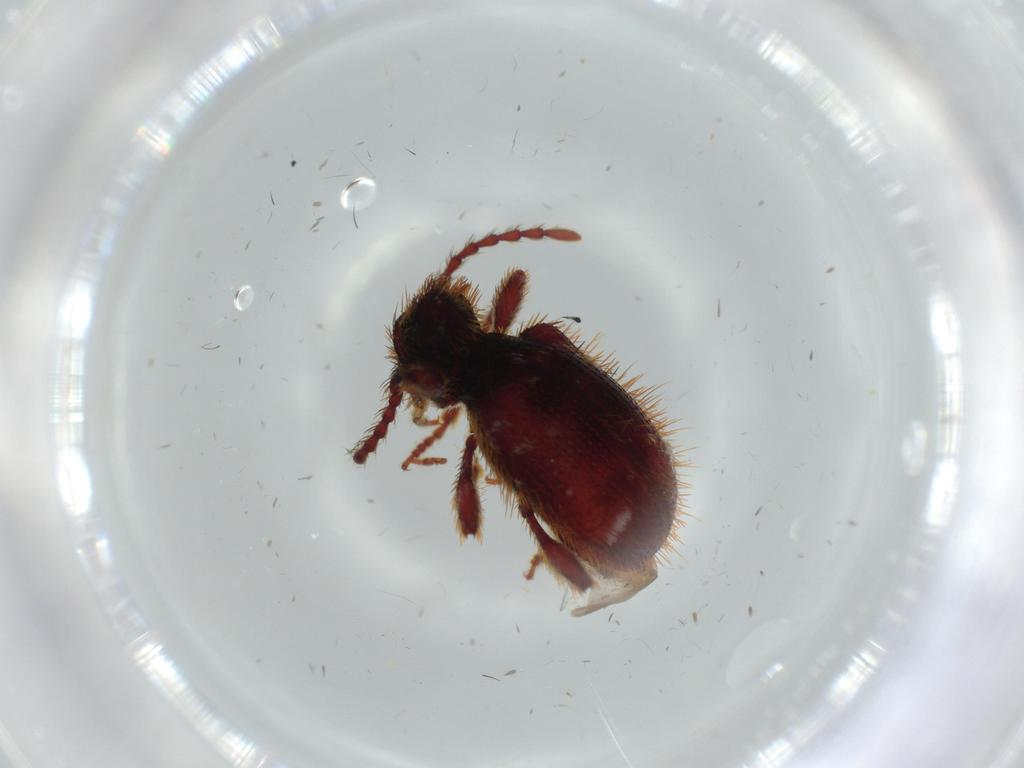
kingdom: Animalia
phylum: Arthropoda
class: Insecta
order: Coleoptera
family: Ptinidae
